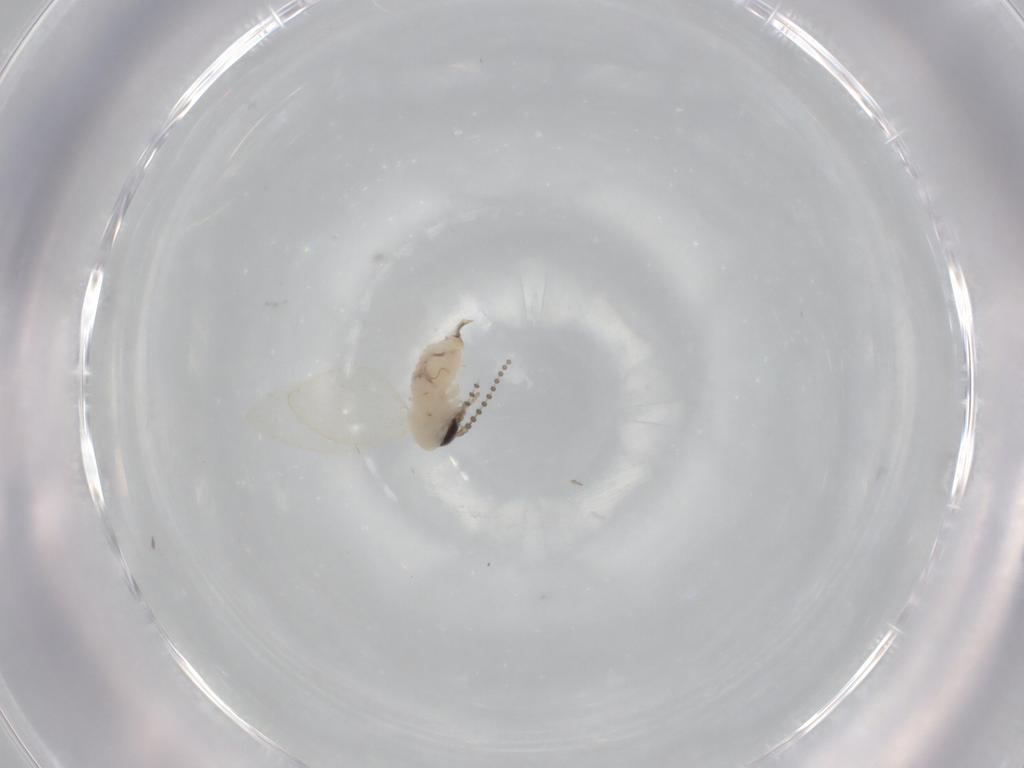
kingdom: Animalia
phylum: Arthropoda
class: Insecta
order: Diptera
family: Psychodidae
